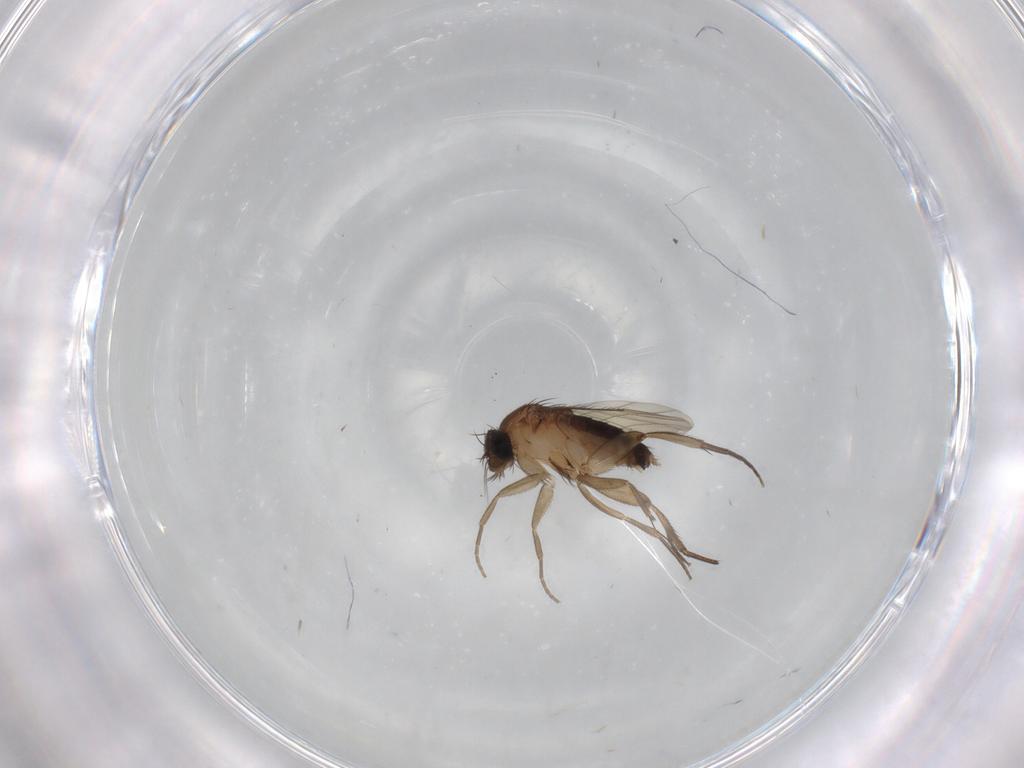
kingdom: Animalia
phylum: Arthropoda
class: Insecta
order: Diptera
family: Phoridae
